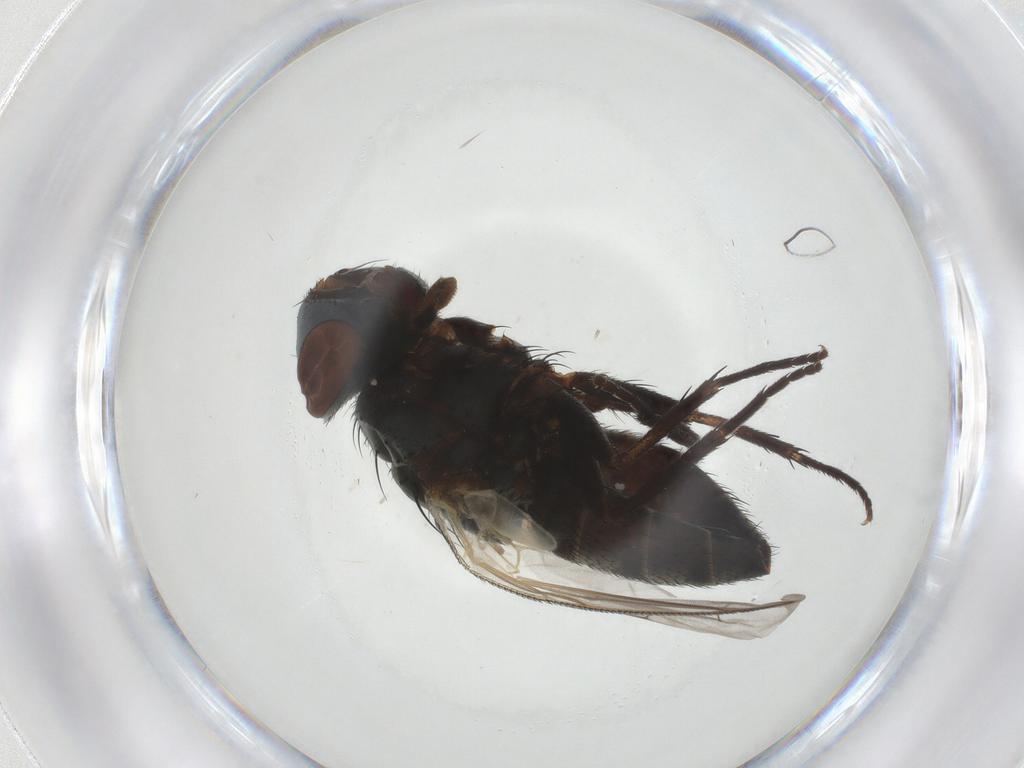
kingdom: Animalia
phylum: Arthropoda
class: Insecta
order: Diptera
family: Sarcophagidae
